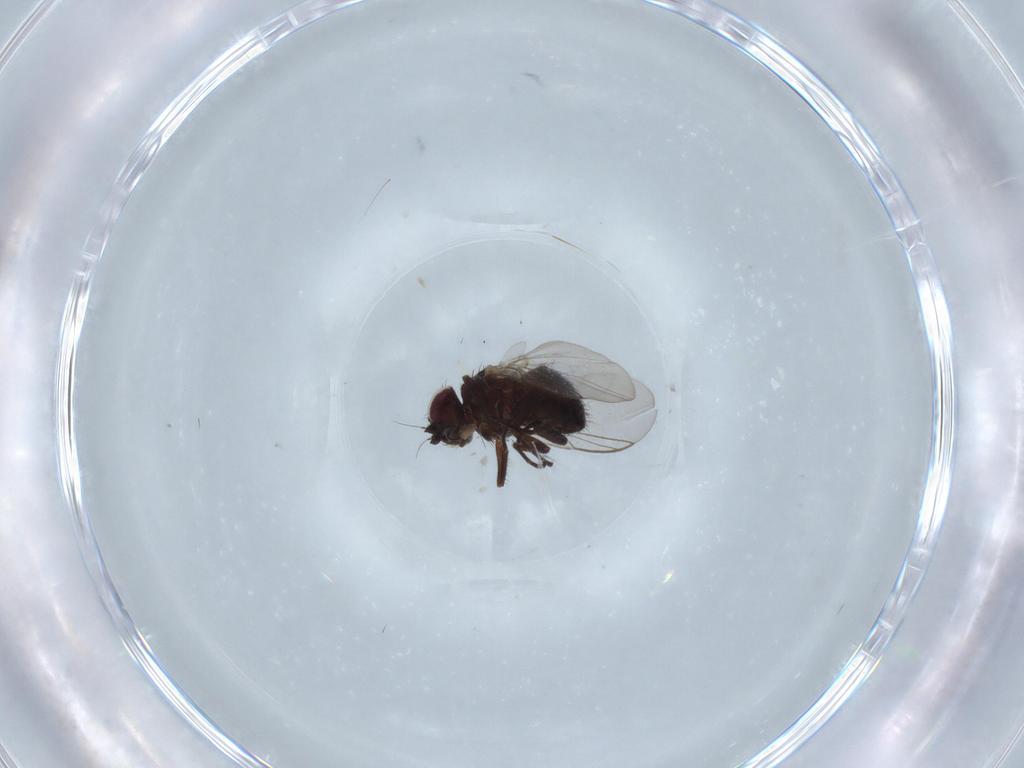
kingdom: Animalia
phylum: Arthropoda
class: Insecta
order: Diptera
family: Syrphidae
